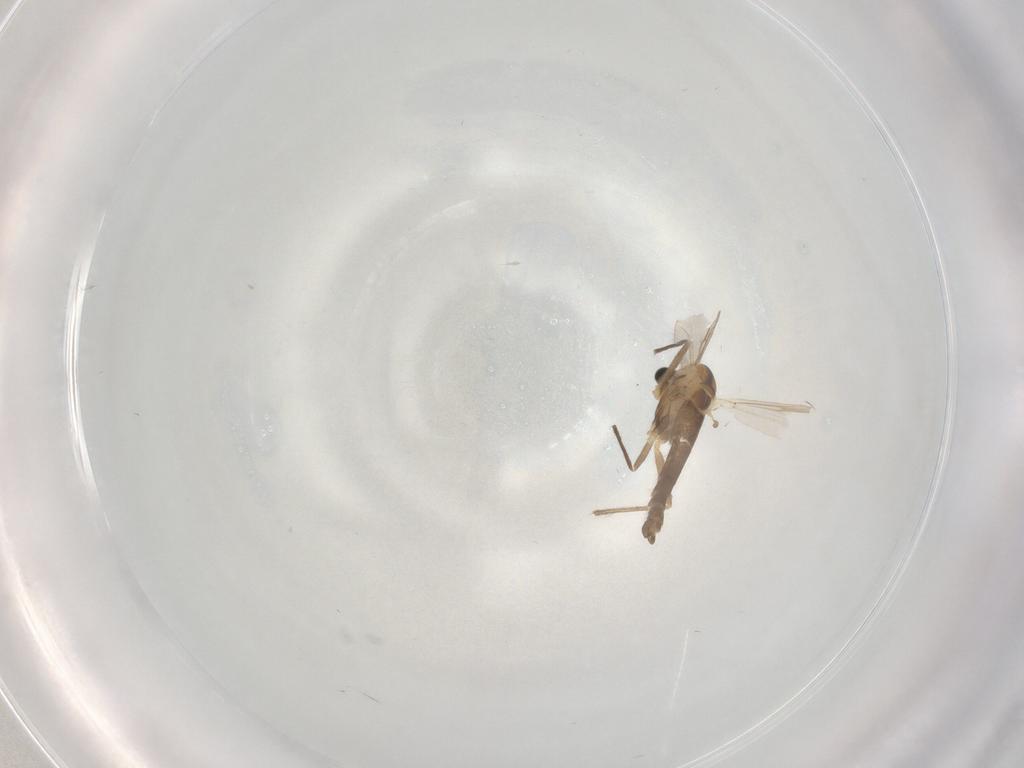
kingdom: Animalia
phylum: Arthropoda
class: Insecta
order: Diptera
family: Chironomidae
